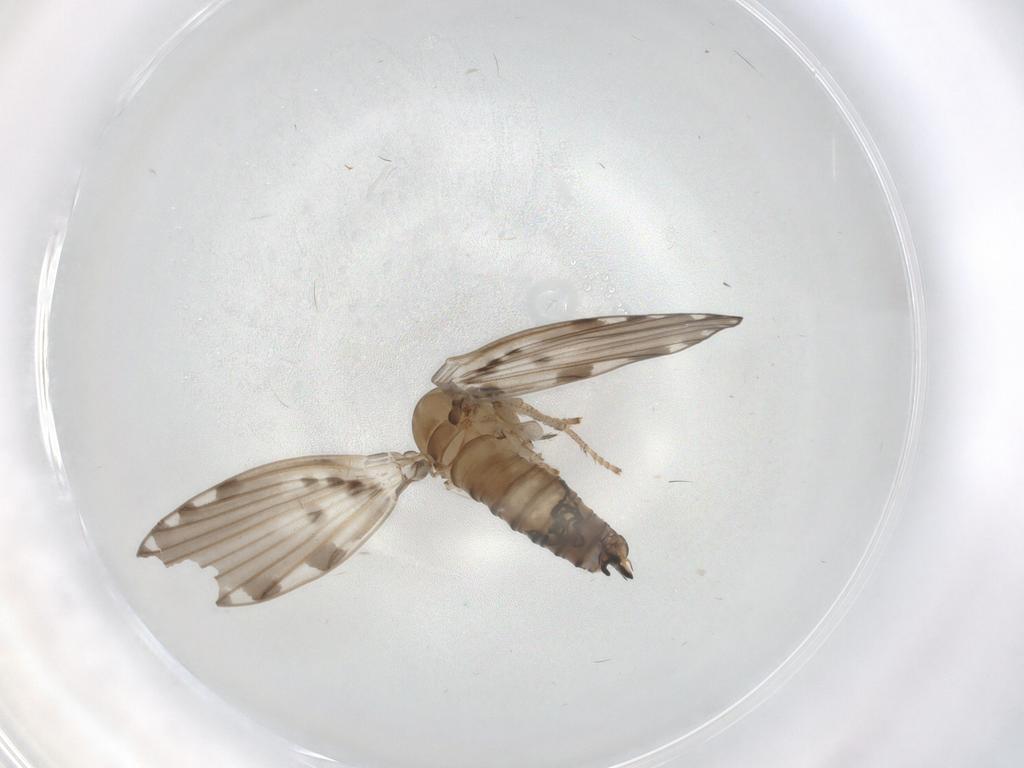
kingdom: Animalia
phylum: Arthropoda
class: Insecta
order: Diptera
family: Psychodidae
